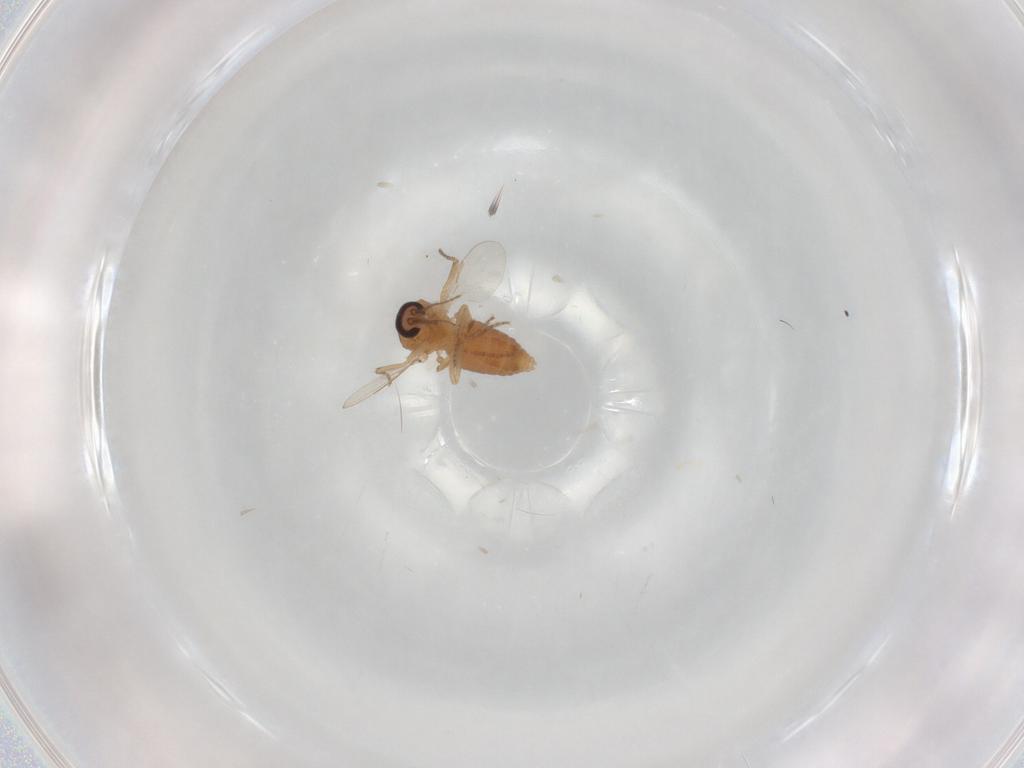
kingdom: Animalia
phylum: Arthropoda
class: Insecta
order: Diptera
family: Ceratopogonidae
